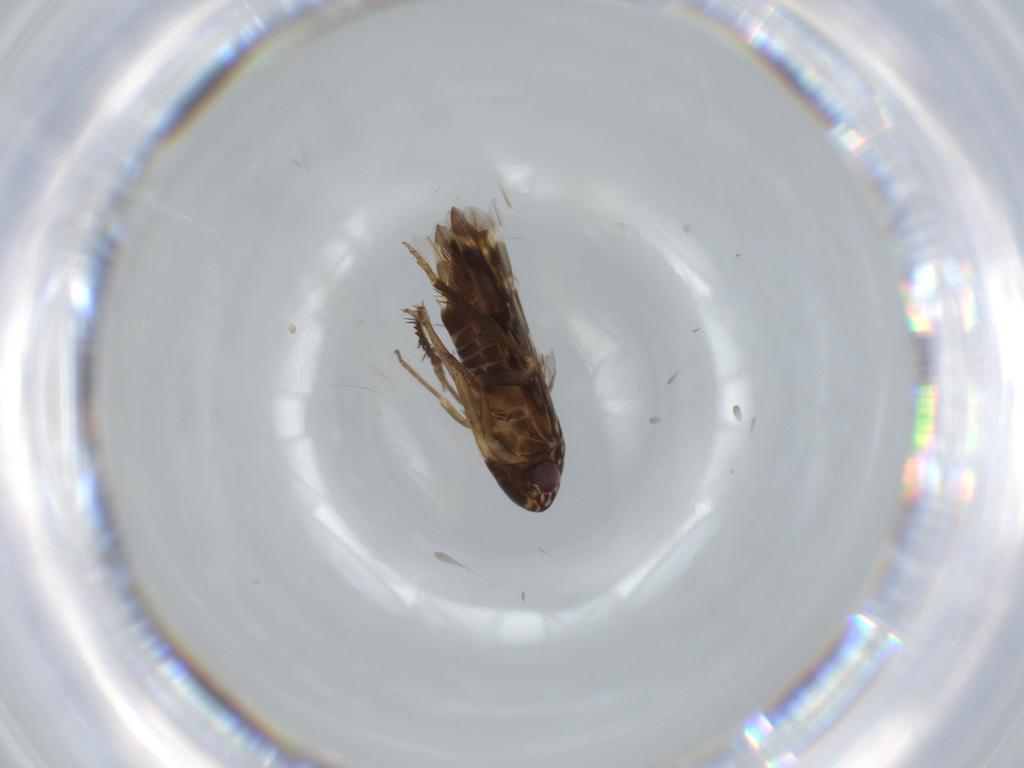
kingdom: Animalia
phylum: Arthropoda
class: Insecta
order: Hemiptera
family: Cicadellidae
